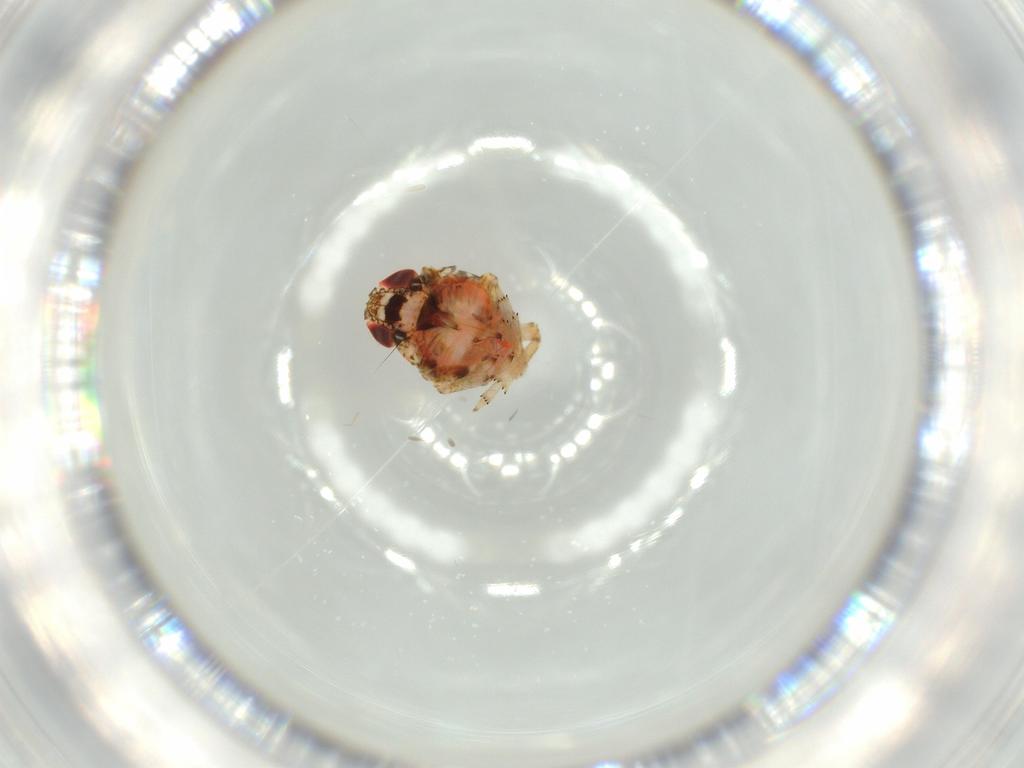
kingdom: Animalia
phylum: Arthropoda
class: Insecta
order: Hemiptera
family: Issidae
